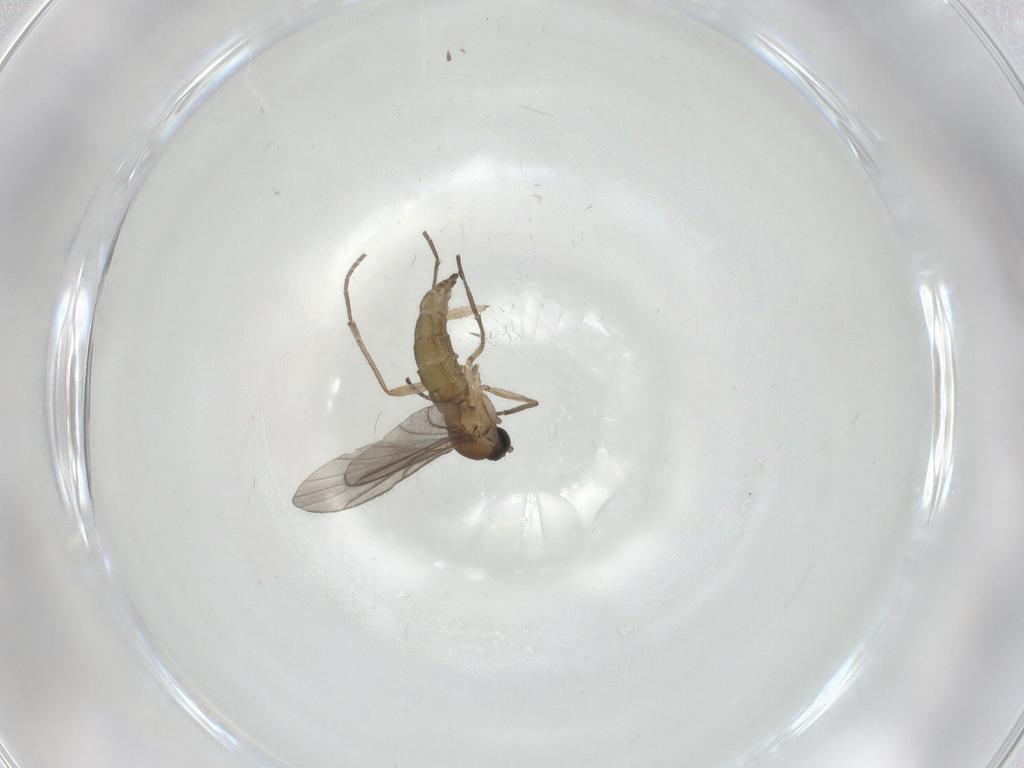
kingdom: Animalia
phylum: Arthropoda
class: Insecta
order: Diptera
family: Sciaridae
